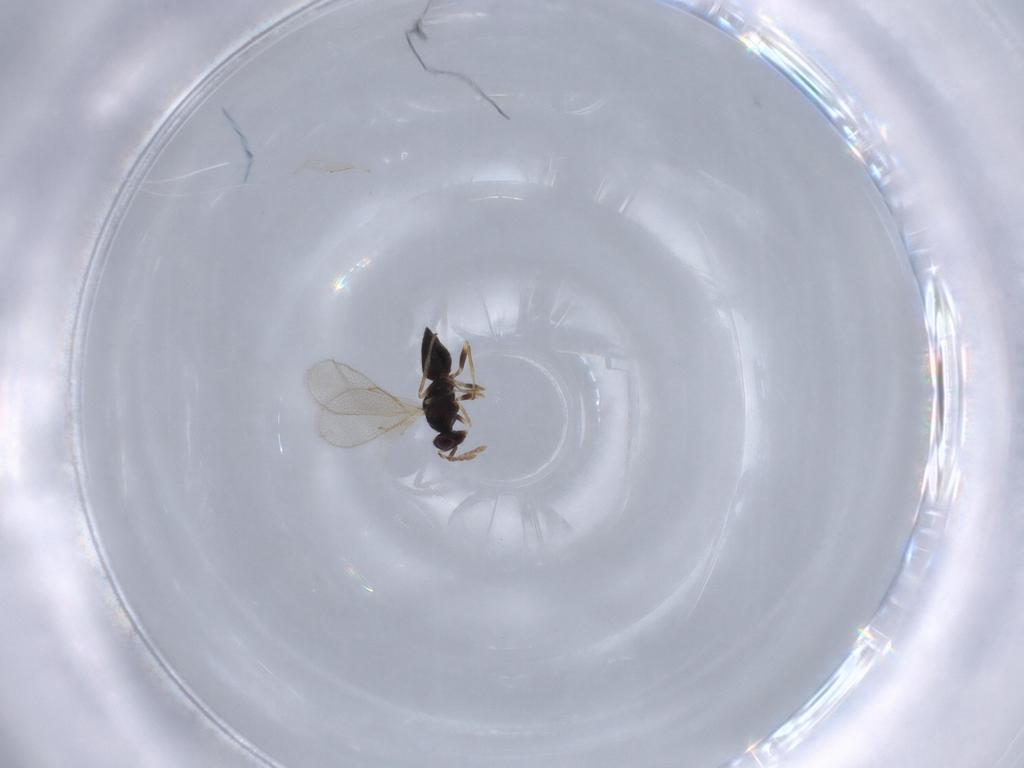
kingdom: Animalia
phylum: Arthropoda
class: Insecta
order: Hymenoptera
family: Eulophidae
